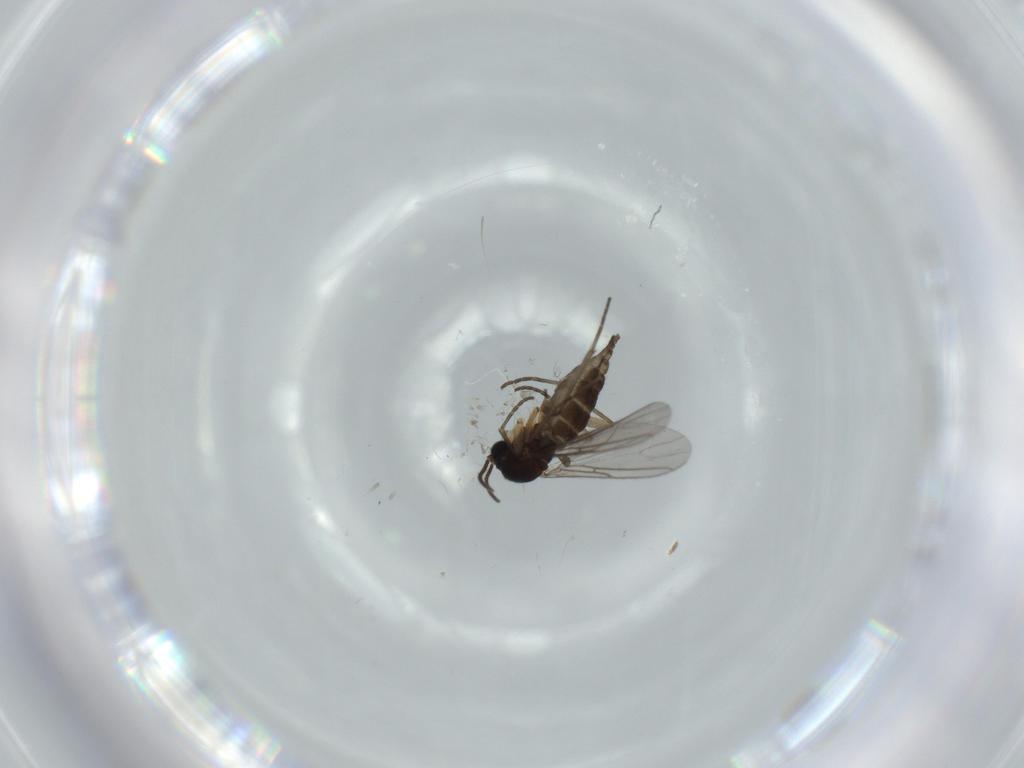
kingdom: Animalia
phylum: Arthropoda
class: Insecta
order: Diptera
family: Sciaridae
